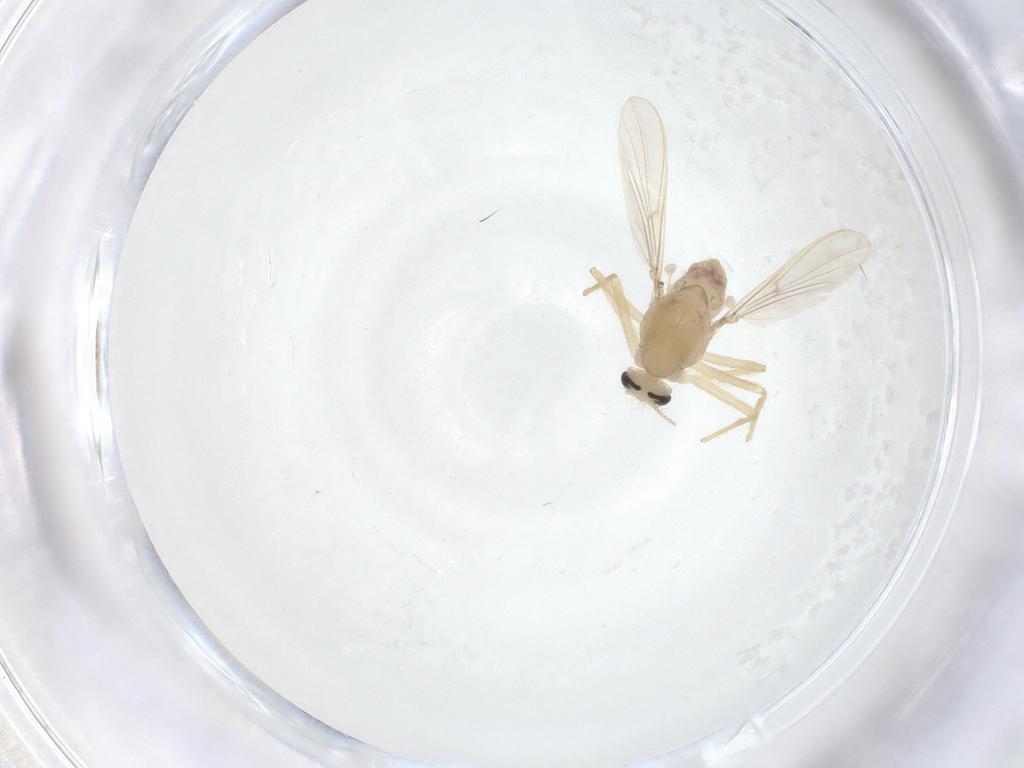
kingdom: Animalia
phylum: Arthropoda
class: Insecta
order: Diptera
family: Chironomidae
